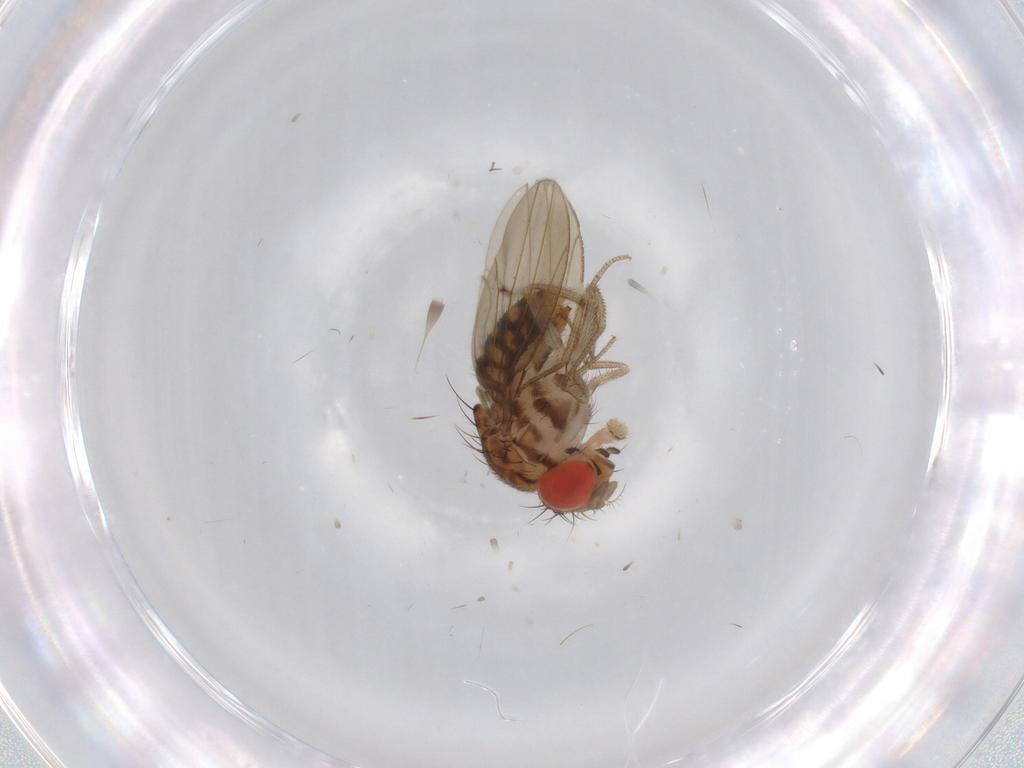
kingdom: Animalia
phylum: Arthropoda
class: Insecta
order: Diptera
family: Drosophilidae
